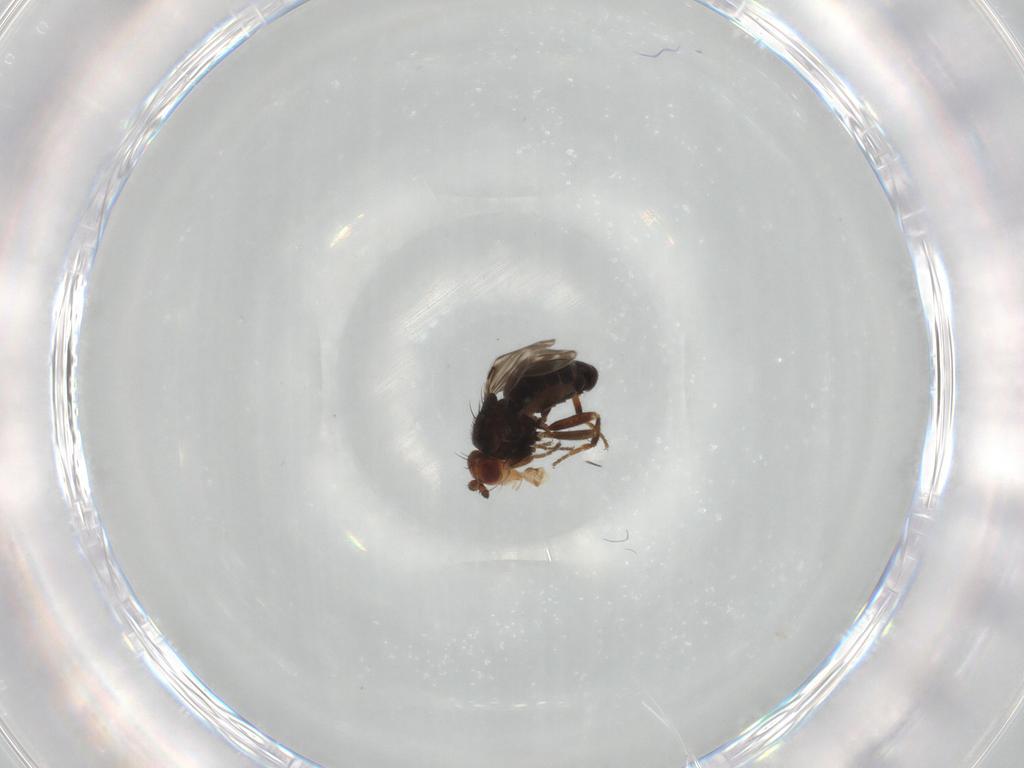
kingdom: Animalia
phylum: Arthropoda
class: Insecta
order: Diptera
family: Sphaeroceridae
